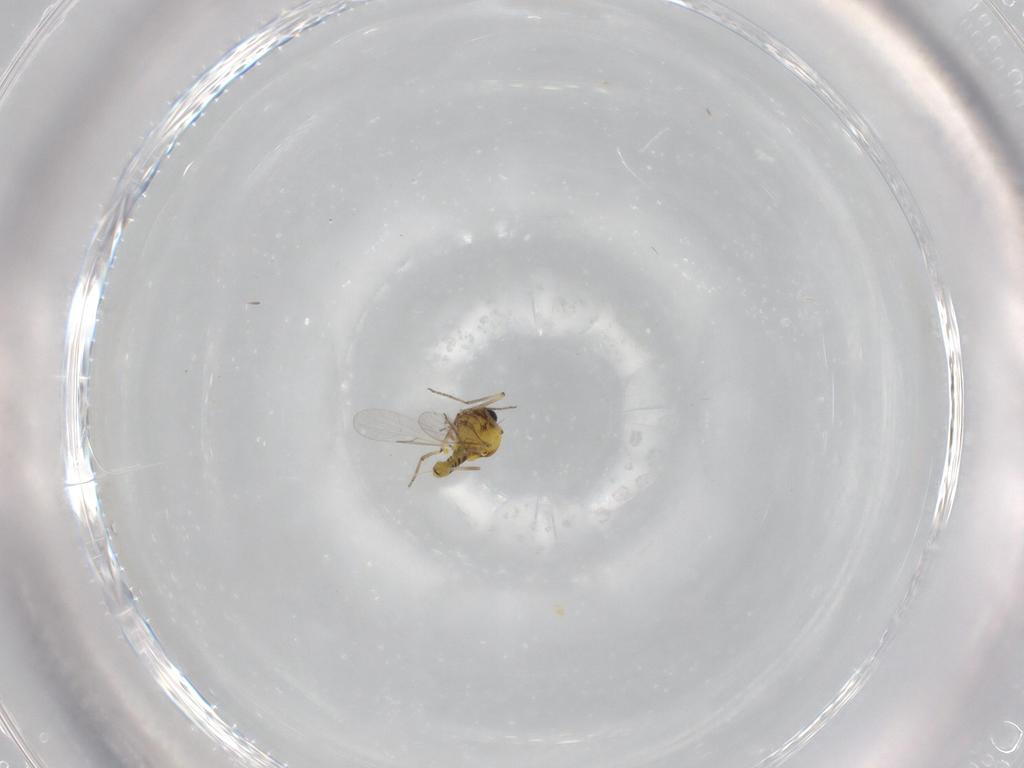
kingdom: Animalia
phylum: Arthropoda
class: Insecta
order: Diptera
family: Ceratopogonidae
